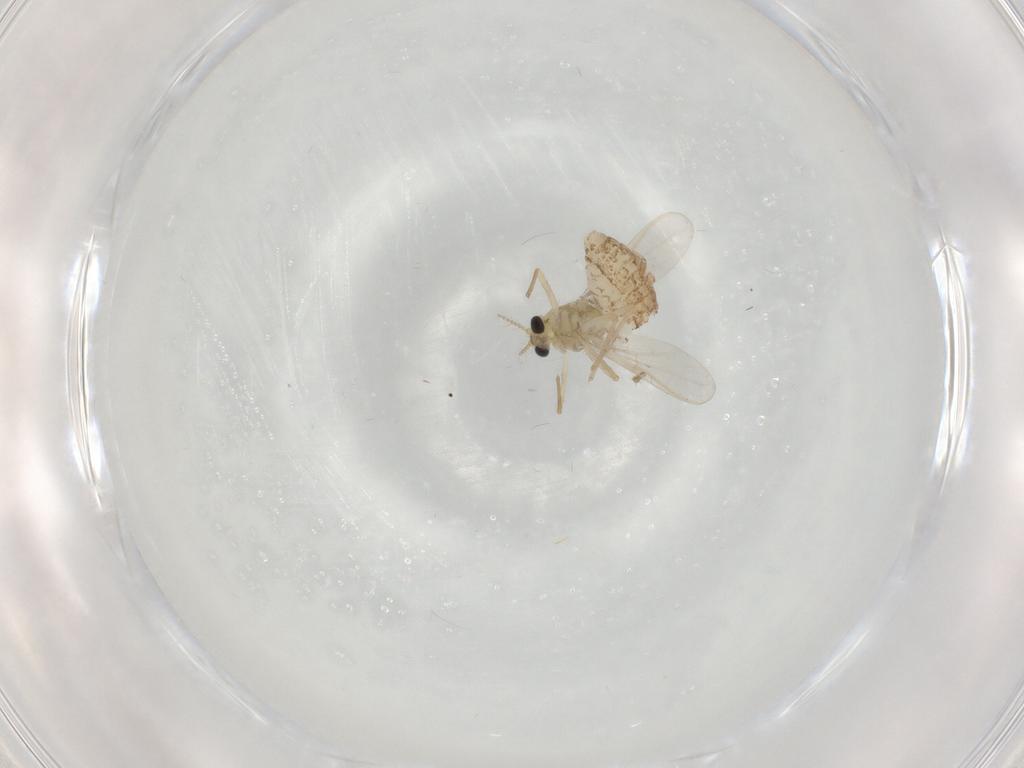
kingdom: Animalia
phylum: Arthropoda
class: Insecta
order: Diptera
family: Chironomidae
